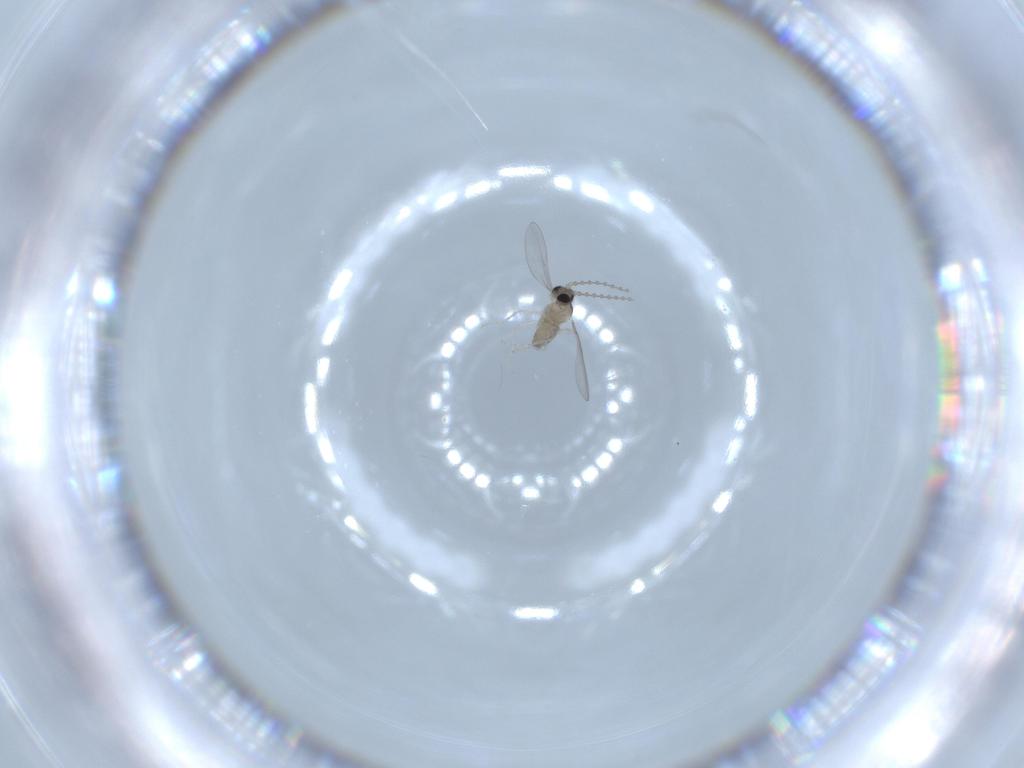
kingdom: Animalia
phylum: Arthropoda
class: Insecta
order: Diptera
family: Cecidomyiidae
